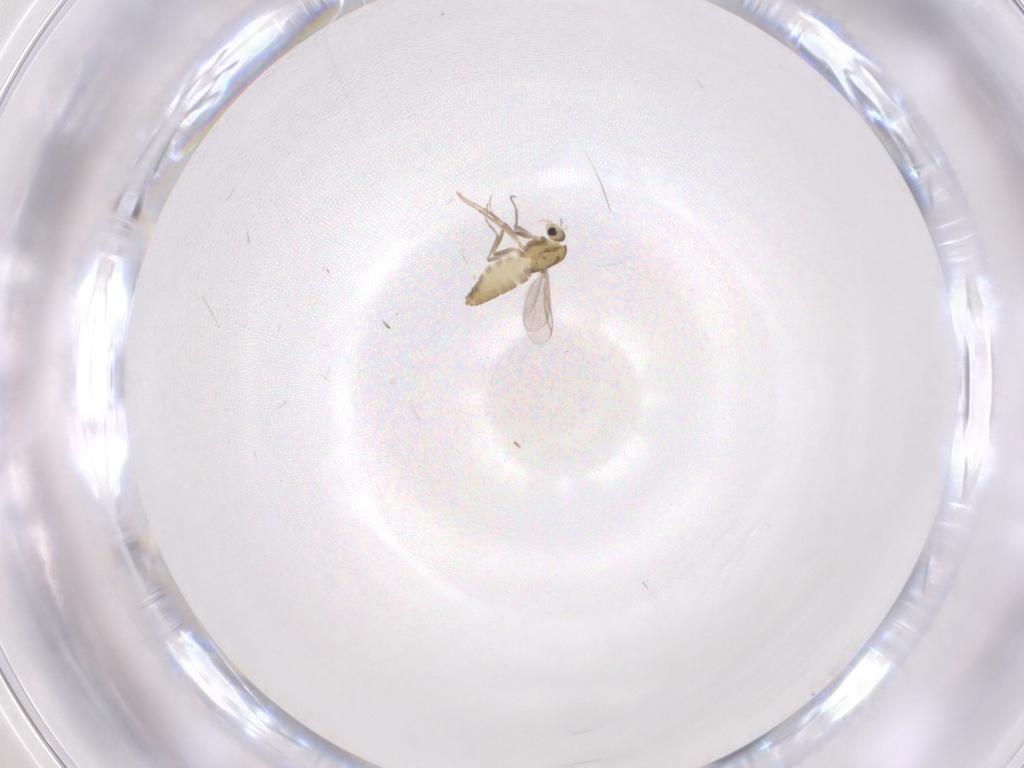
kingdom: Animalia
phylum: Arthropoda
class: Insecta
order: Diptera
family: Chironomidae
